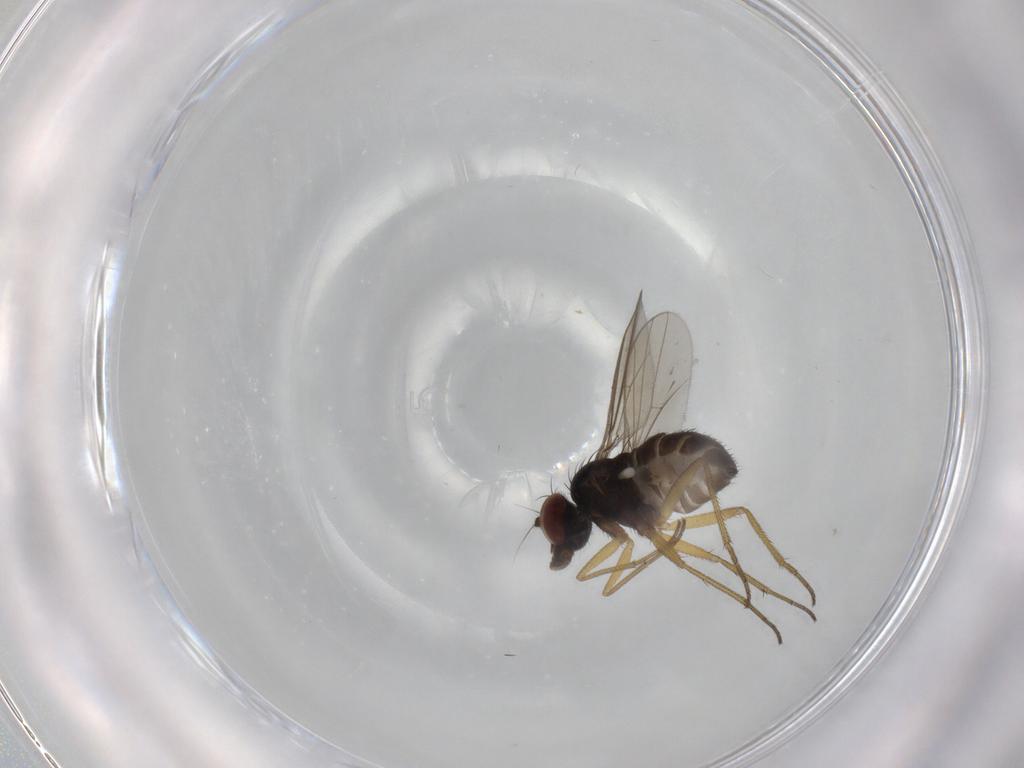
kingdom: Animalia
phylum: Arthropoda
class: Insecta
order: Diptera
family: Dolichopodidae
